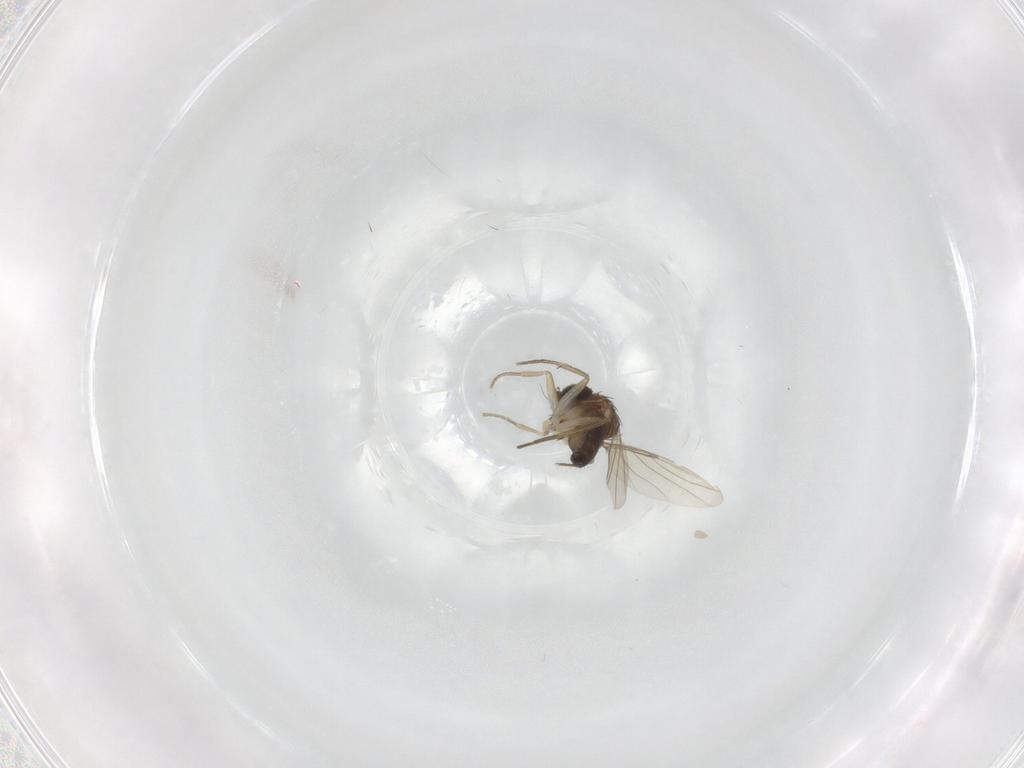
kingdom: Animalia
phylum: Arthropoda
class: Insecta
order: Diptera
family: Phoridae
